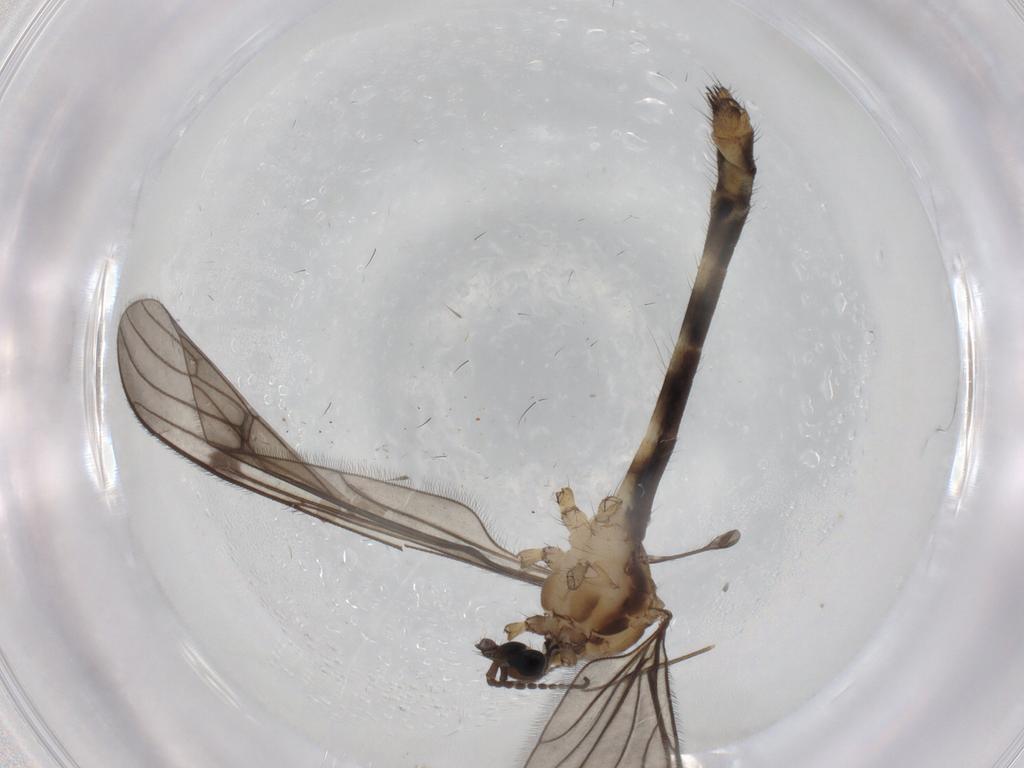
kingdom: Animalia
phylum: Arthropoda
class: Insecta
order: Diptera
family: Limoniidae
